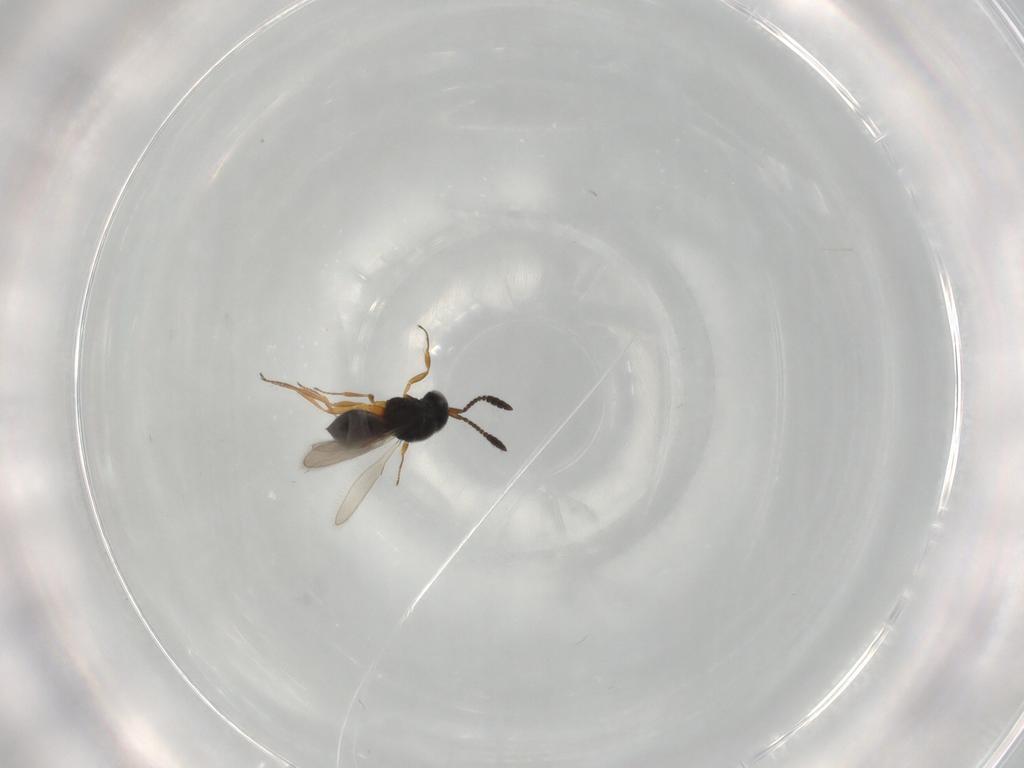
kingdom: Animalia
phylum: Arthropoda
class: Insecta
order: Hymenoptera
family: Scelionidae
